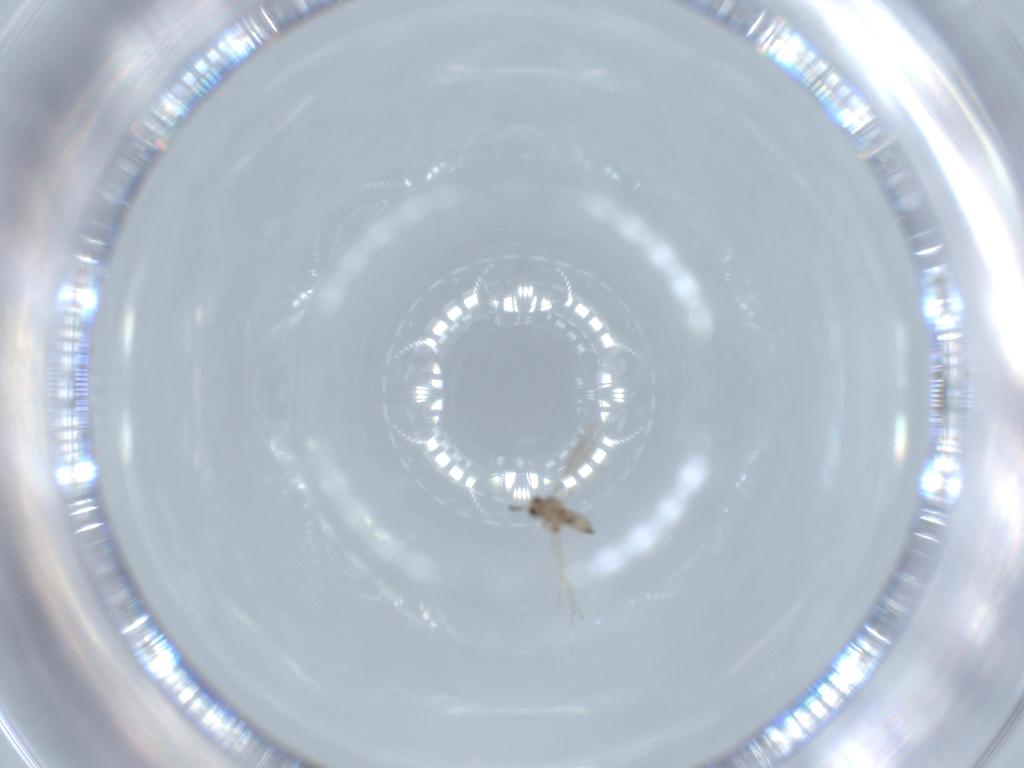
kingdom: Animalia
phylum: Arthropoda
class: Insecta
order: Diptera
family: Cecidomyiidae
